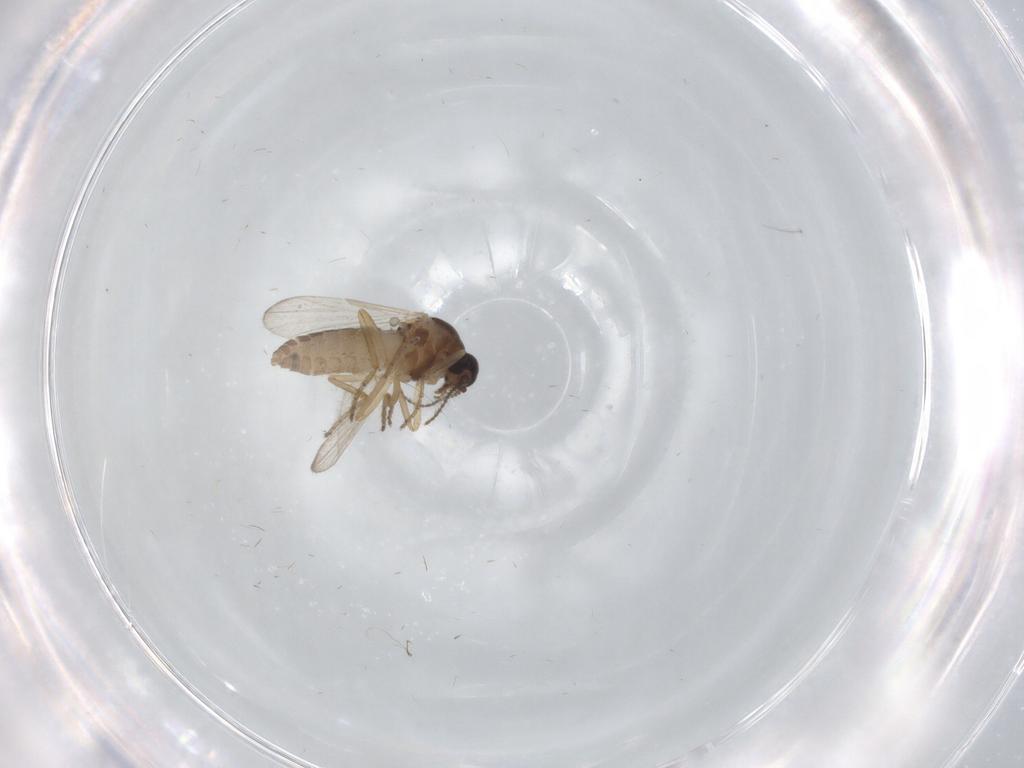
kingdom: Animalia
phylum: Arthropoda
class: Insecta
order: Diptera
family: Ceratopogonidae
